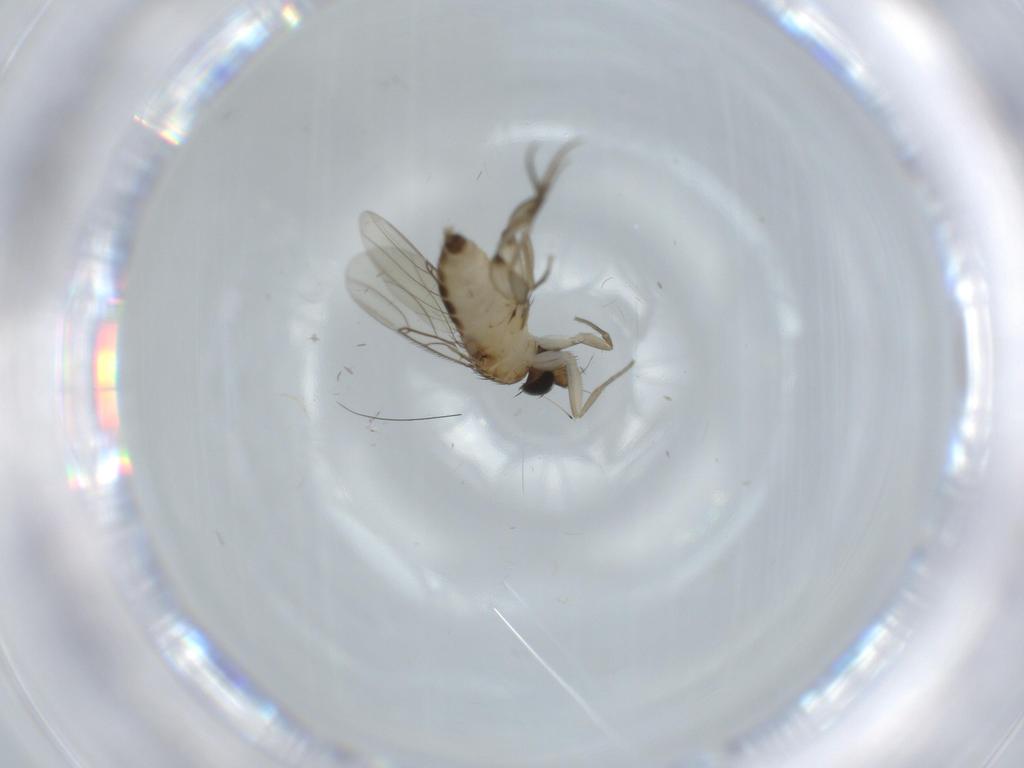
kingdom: Animalia
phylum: Arthropoda
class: Insecta
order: Diptera
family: Phoridae
